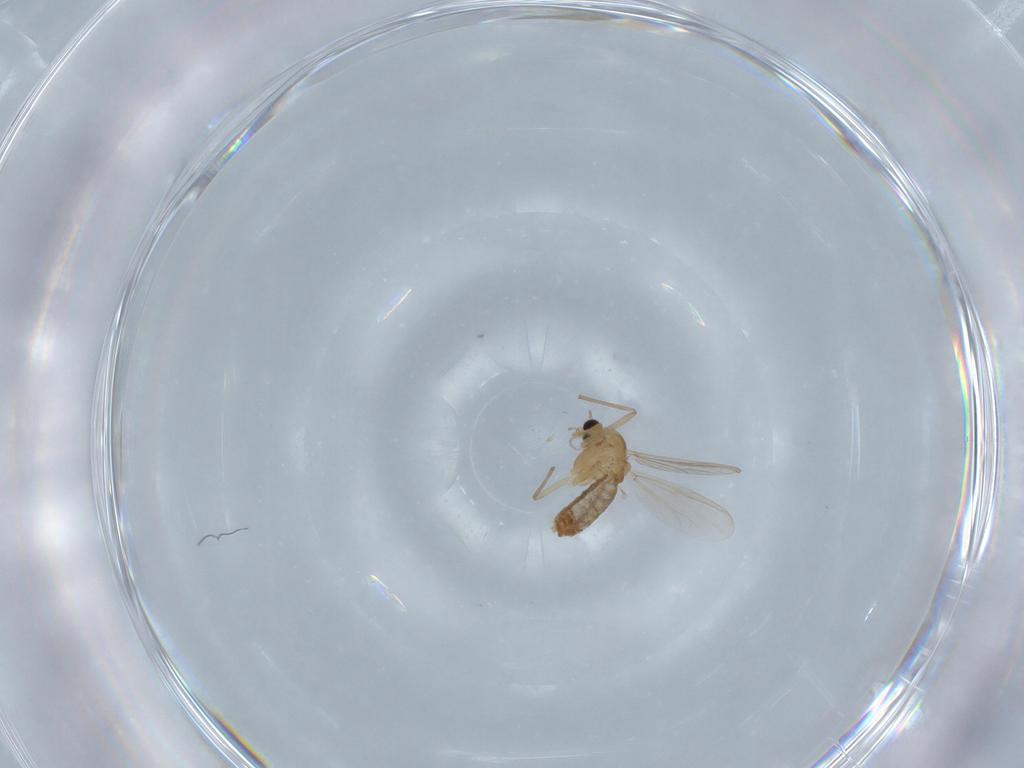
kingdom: Animalia
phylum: Arthropoda
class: Insecta
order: Diptera
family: Chironomidae
